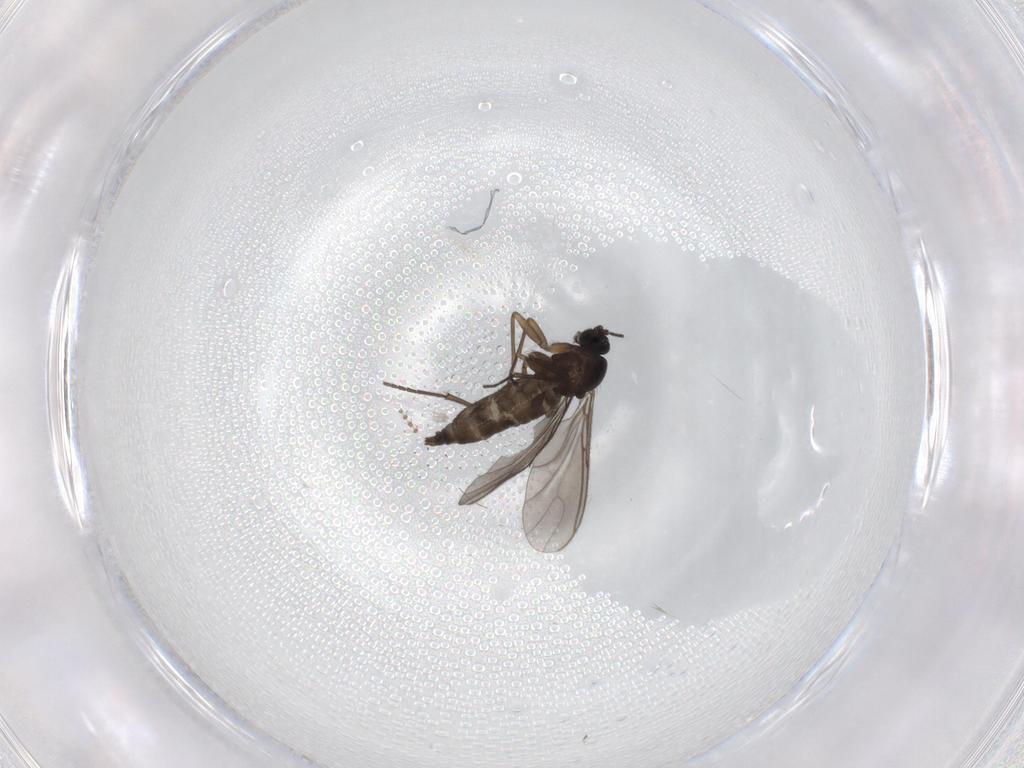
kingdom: Animalia
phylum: Arthropoda
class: Insecta
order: Diptera
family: Sciaridae
